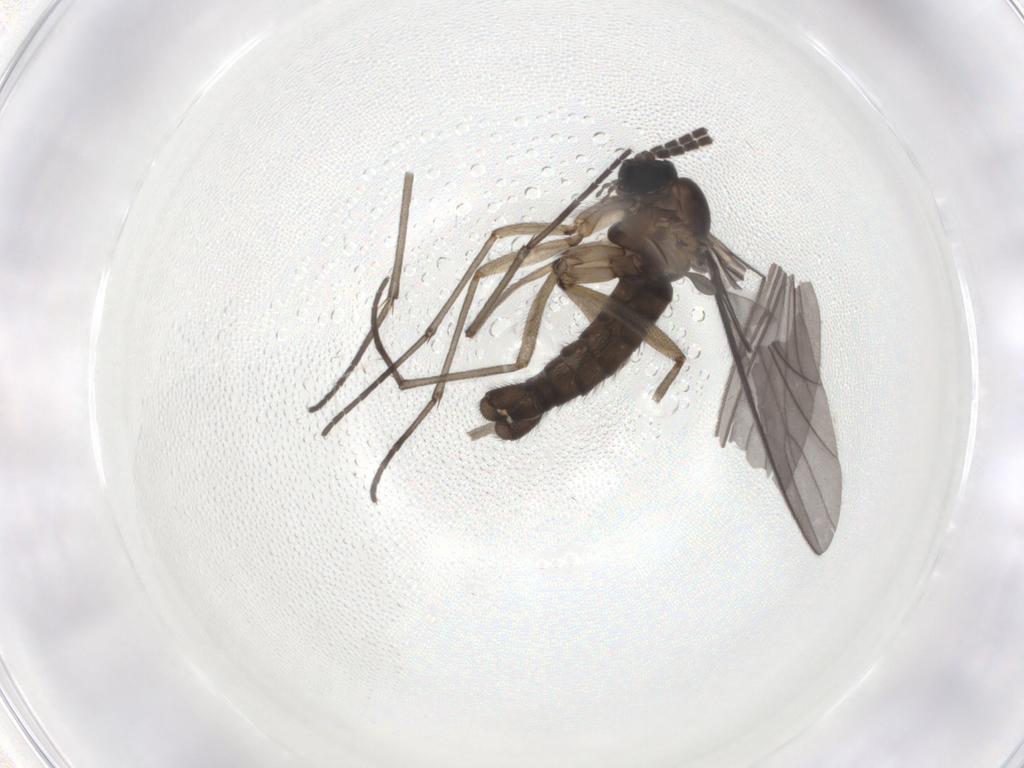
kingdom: Animalia
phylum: Arthropoda
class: Insecta
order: Diptera
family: Sciaridae
